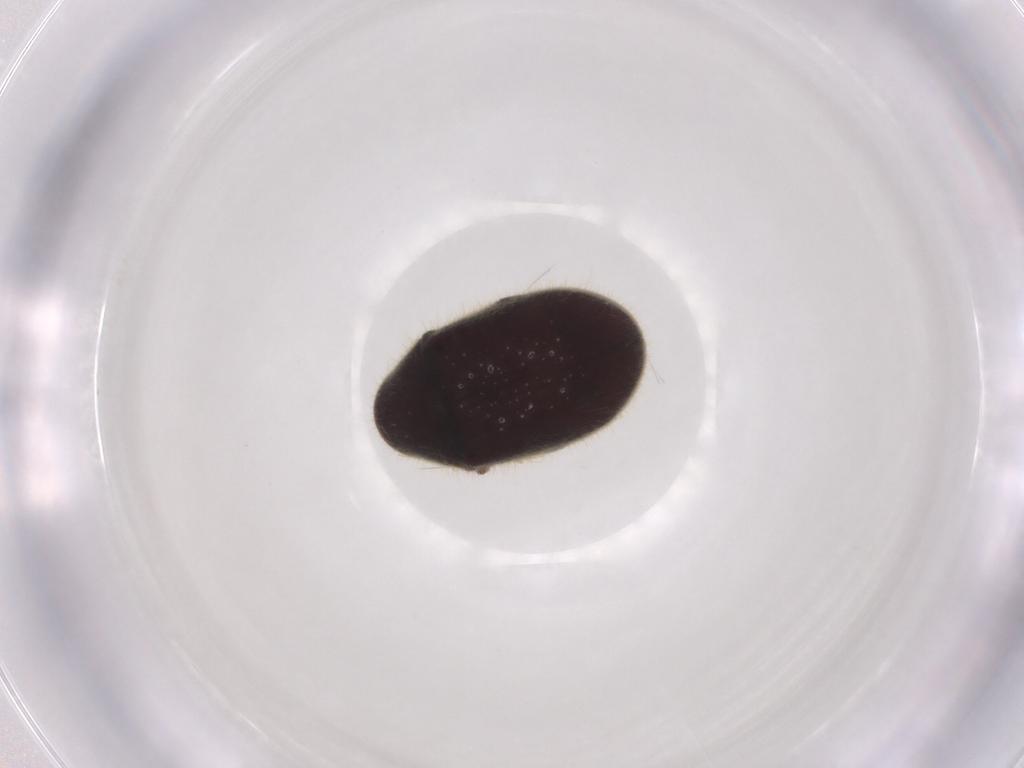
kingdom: Animalia
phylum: Arthropoda
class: Insecta
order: Coleoptera
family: Ptinidae
